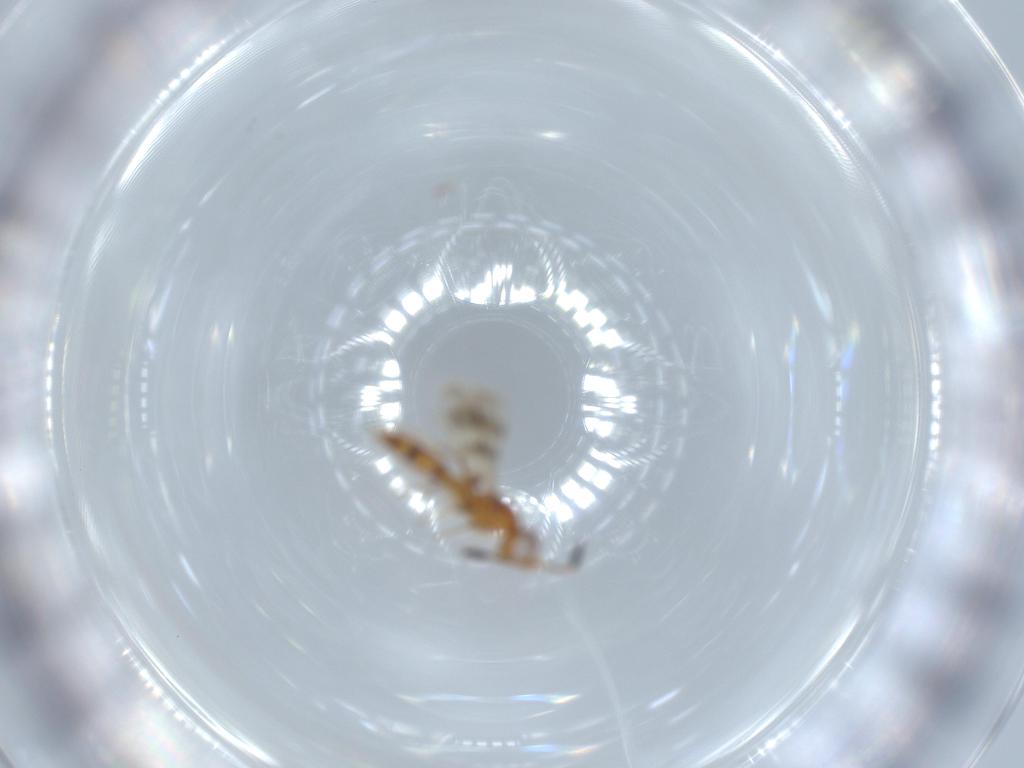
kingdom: Animalia
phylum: Arthropoda
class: Insecta
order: Hymenoptera
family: Scelionidae
